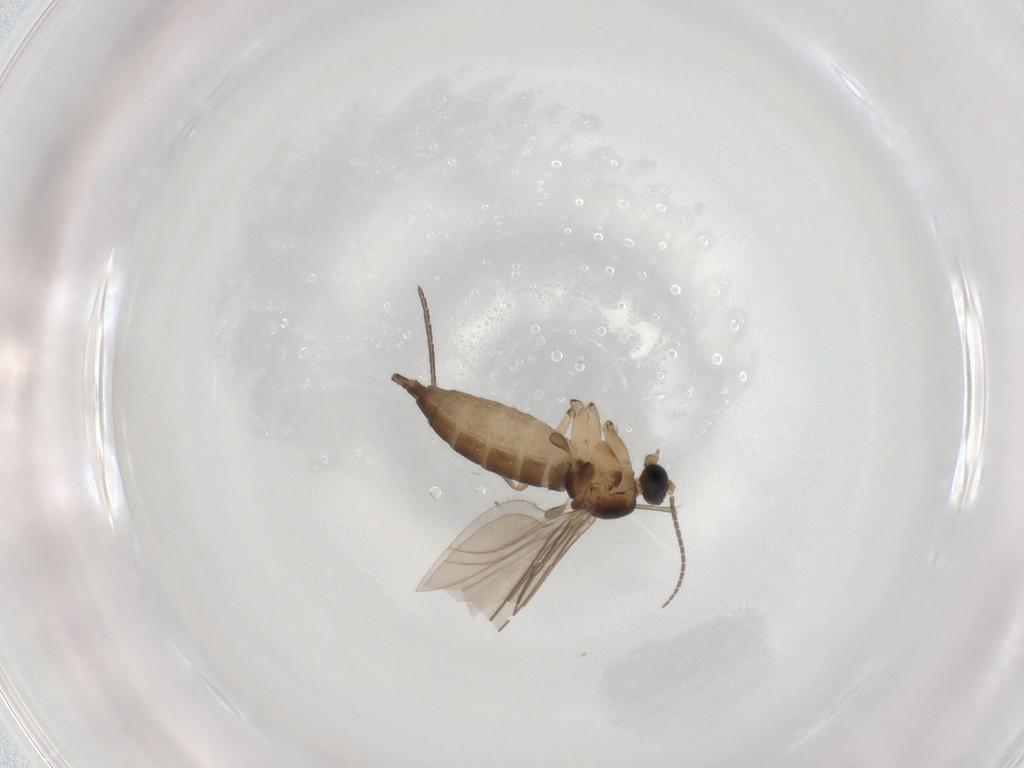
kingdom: Animalia
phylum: Arthropoda
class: Insecta
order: Diptera
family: Sciaridae
